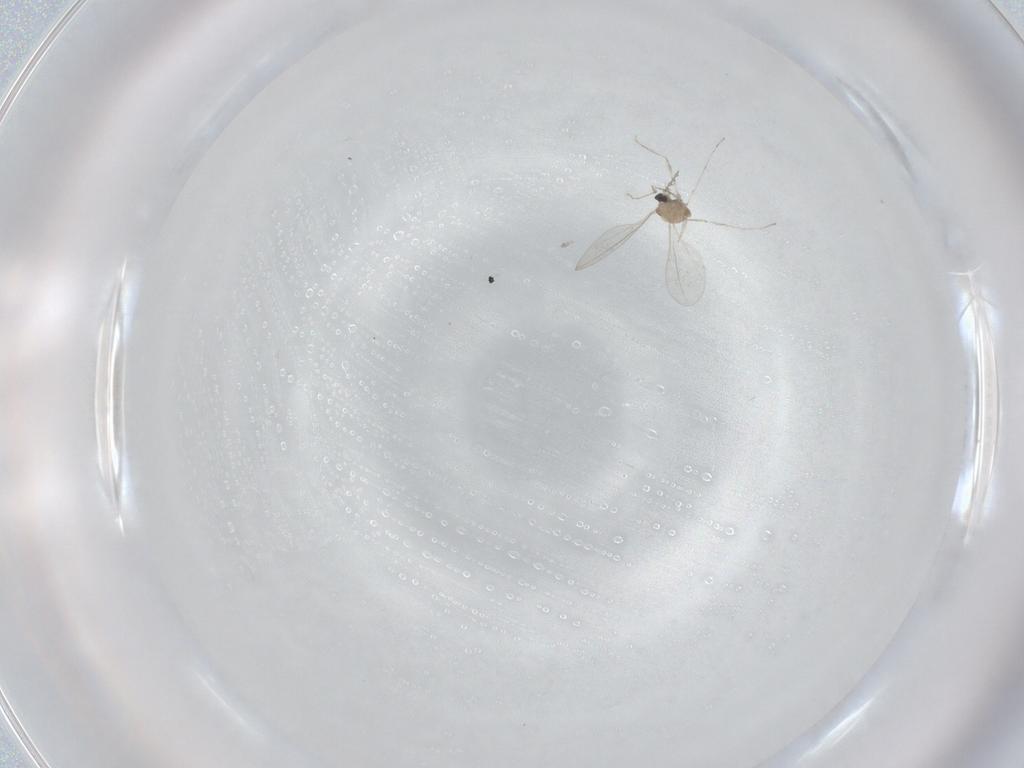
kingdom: Animalia
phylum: Arthropoda
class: Insecta
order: Diptera
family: Cecidomyiidae
